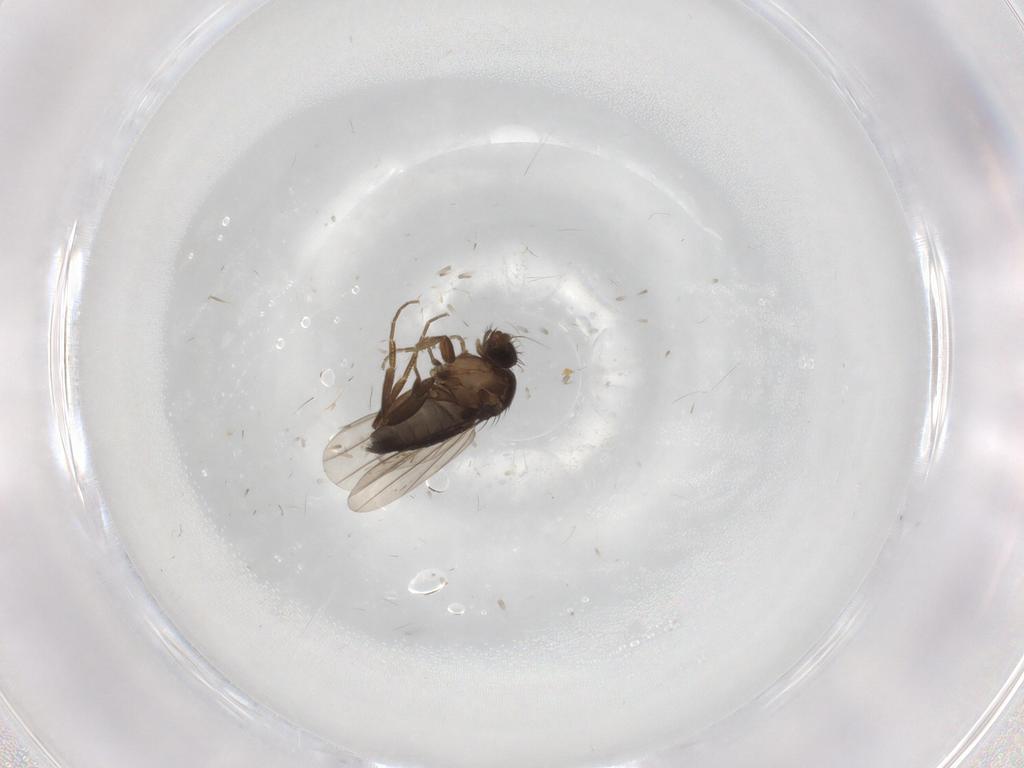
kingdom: Animalia
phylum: Arthropoda
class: Insecta
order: Diptera
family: Phoridae
